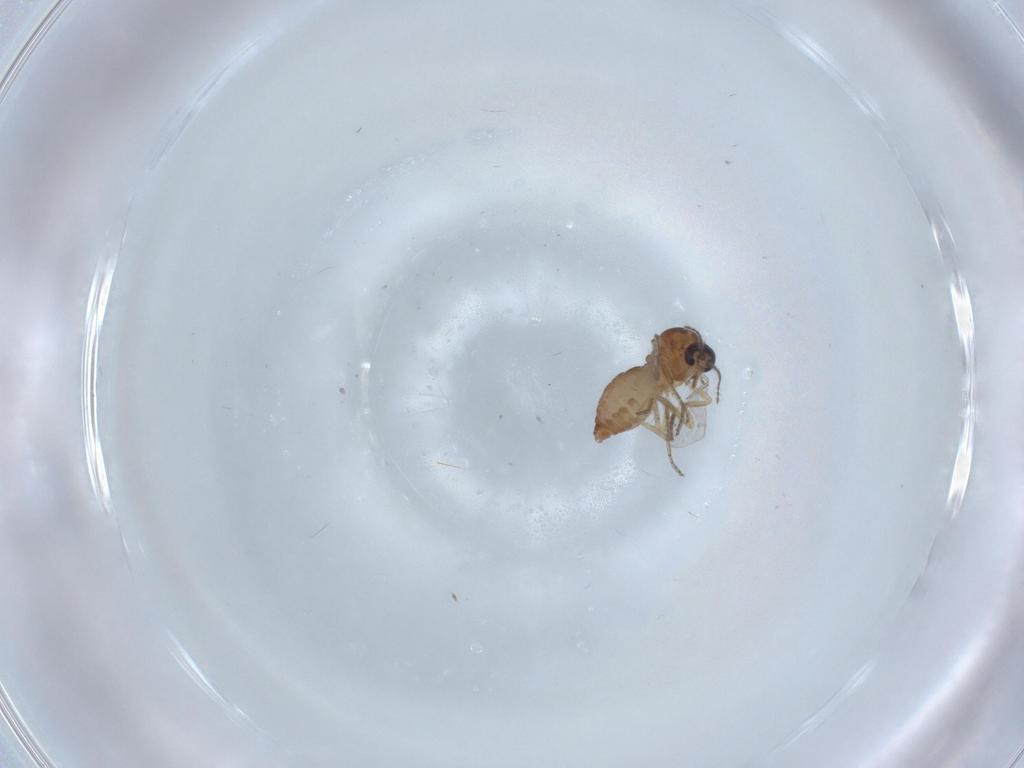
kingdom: Animalia
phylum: Arthropoda
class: Insecta
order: Diptera
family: Ceratopogonidae
